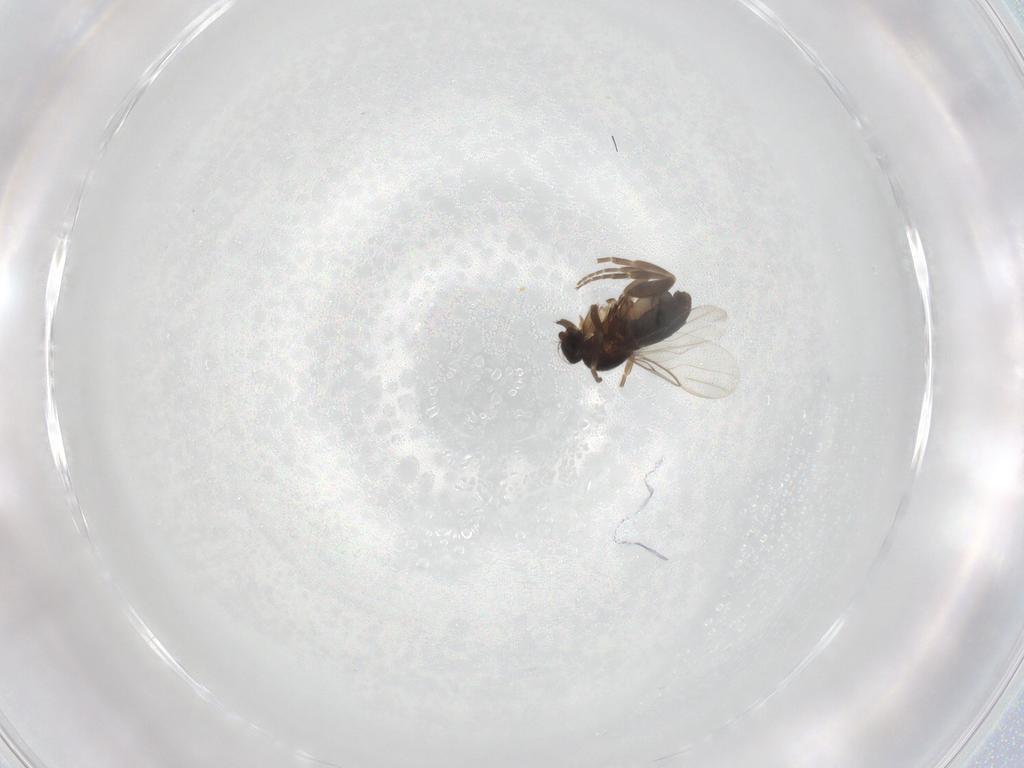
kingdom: Animalia
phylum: Arthropoda
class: Insecta
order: Diptera
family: Phoridae
